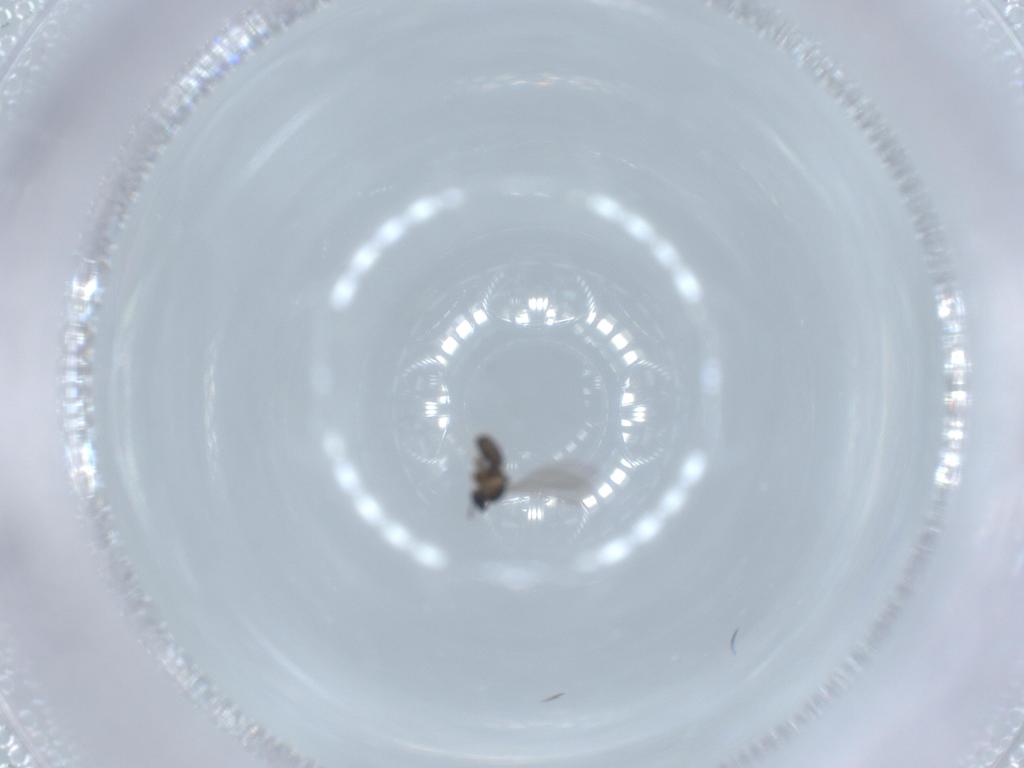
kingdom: Animalia
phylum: Arthropoda
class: Insecta
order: Diptera
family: Cecidomyiidae
